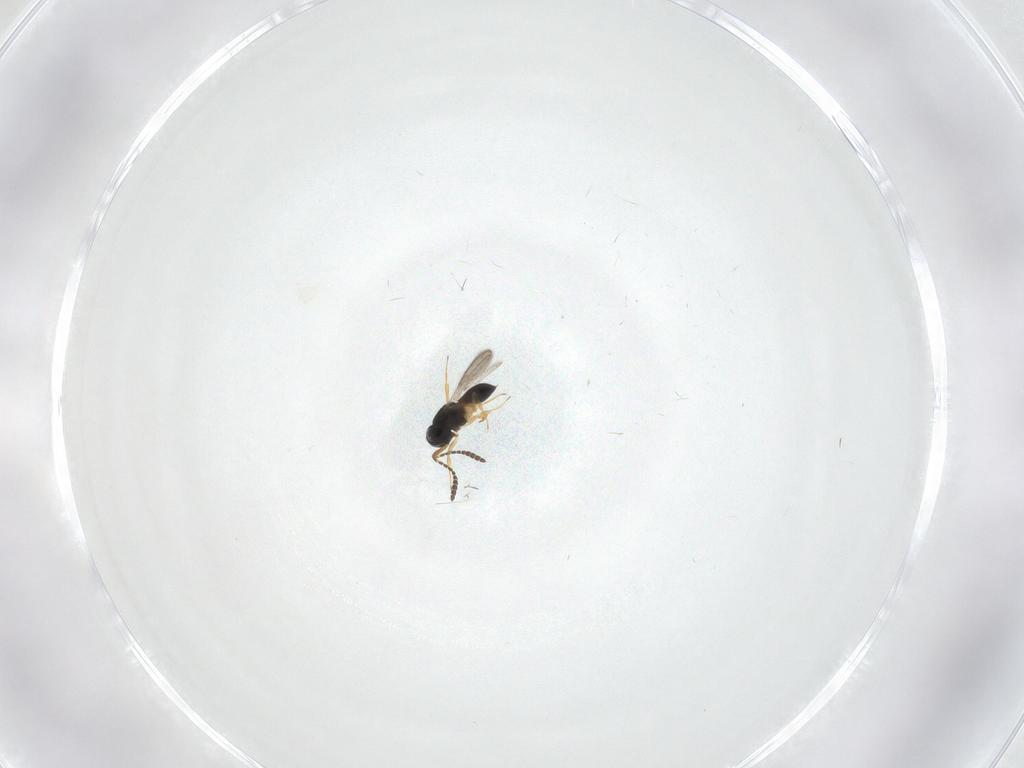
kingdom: Animalia
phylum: Arthropoda
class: Insecta
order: Hymenoptera
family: Scelionidae
